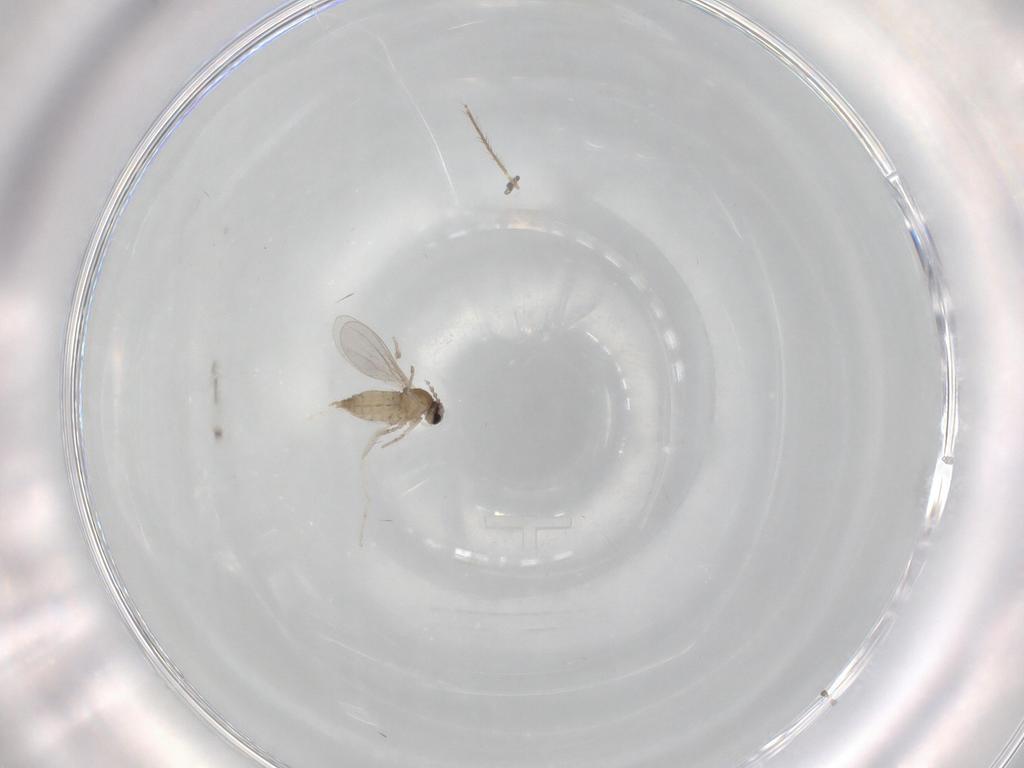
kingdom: Animalia
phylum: Arthropoda
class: Insecta
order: Diptera
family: Cecidomyiidae
